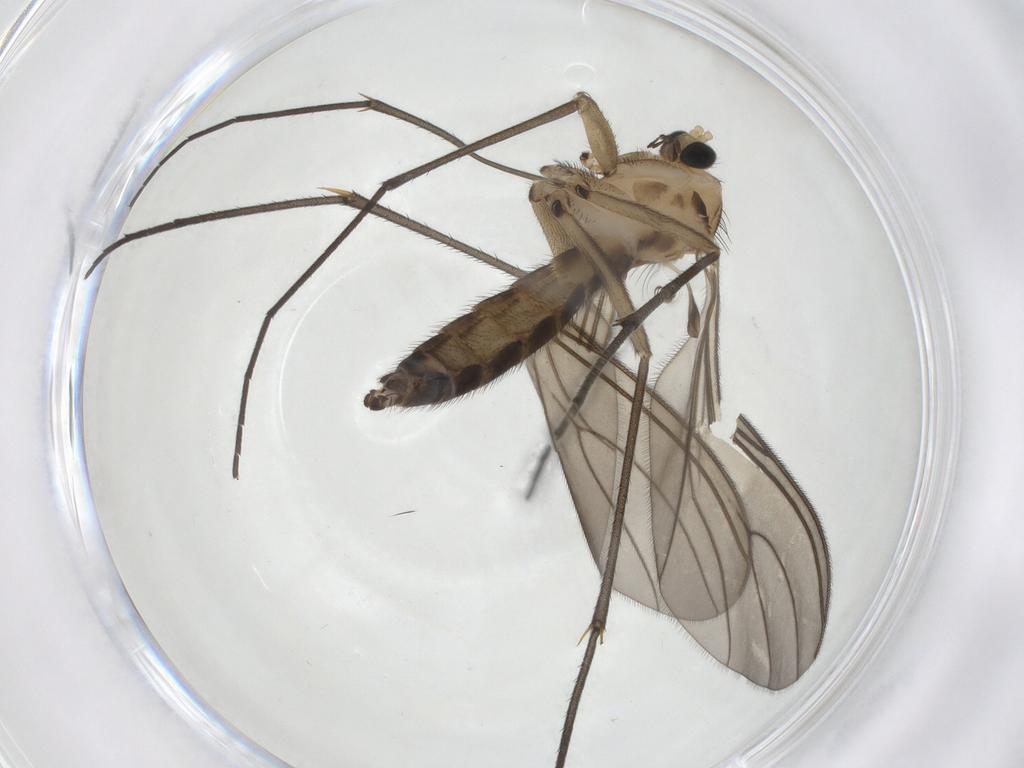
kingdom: Animalia
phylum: Arthropoda
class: Insecta
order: Diptera
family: Sciaridae
